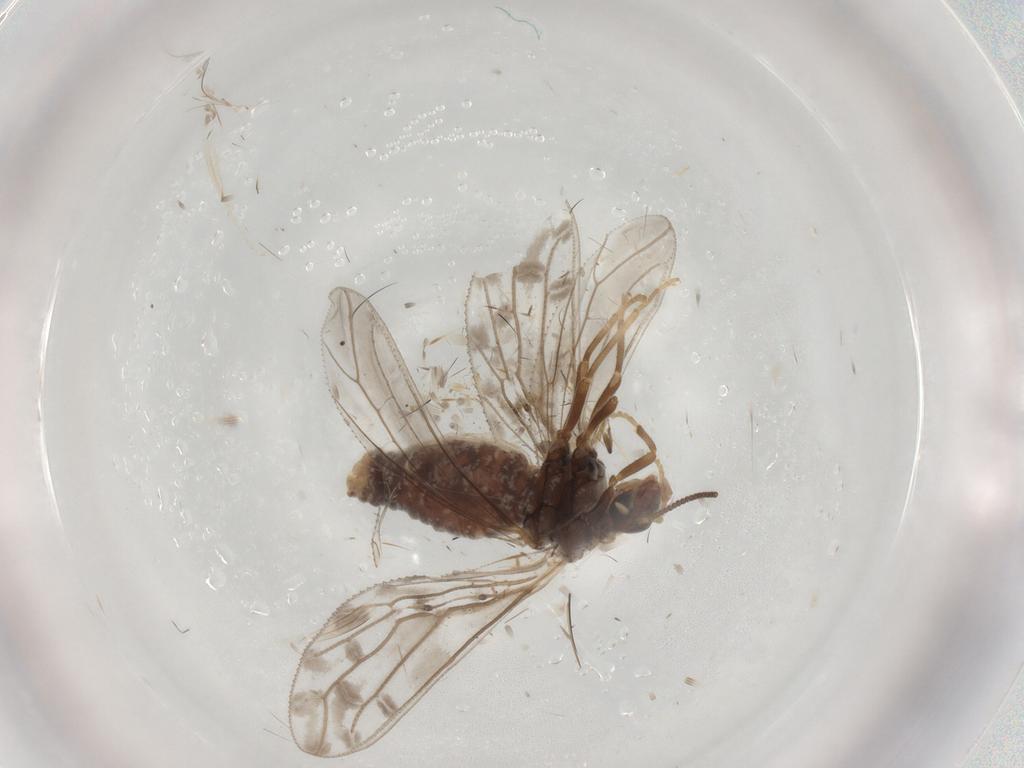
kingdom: Animalia
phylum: Arthropoda
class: Insecta
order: Neuroptera
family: Coniopterygidae
